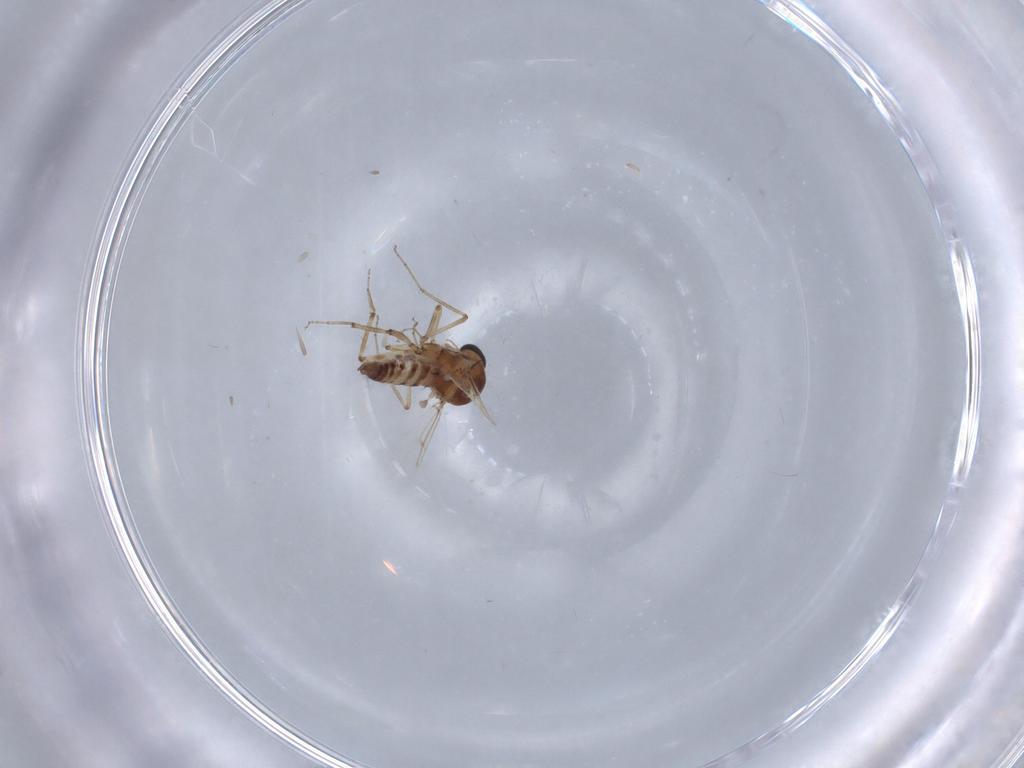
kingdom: Animalia
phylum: Arthropoda
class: Insecta
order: Diptera
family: Ceratopogonidae
